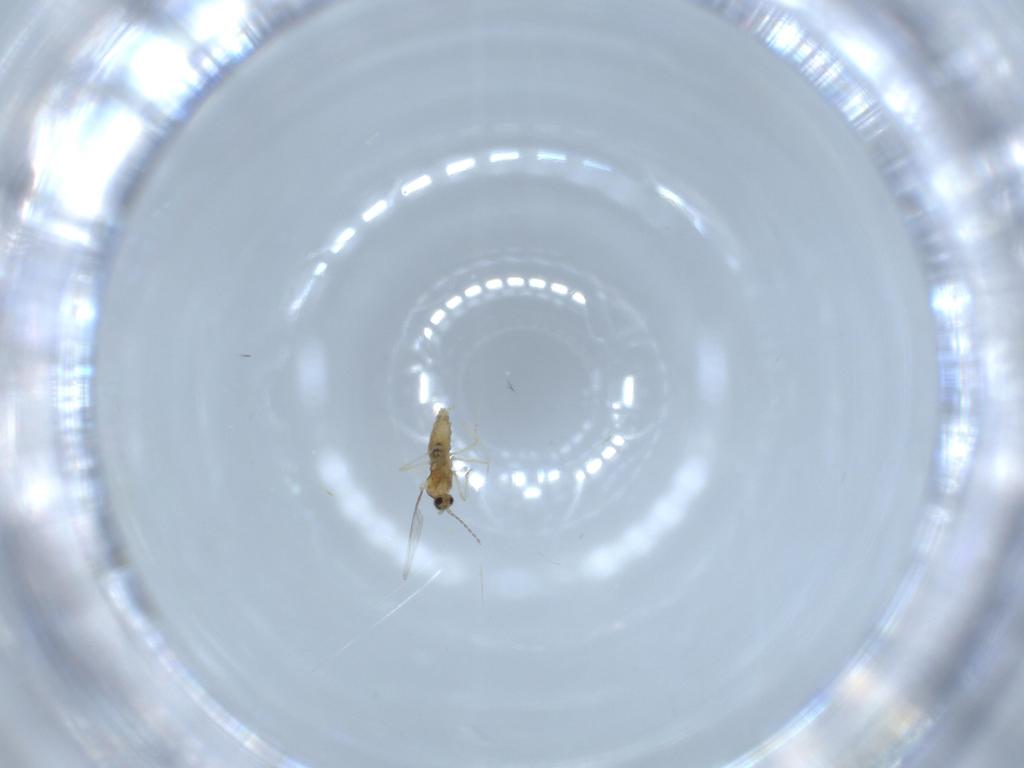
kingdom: Animalia
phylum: Arthropoda
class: Insecta
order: Diptera
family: Cecidomyiidae
